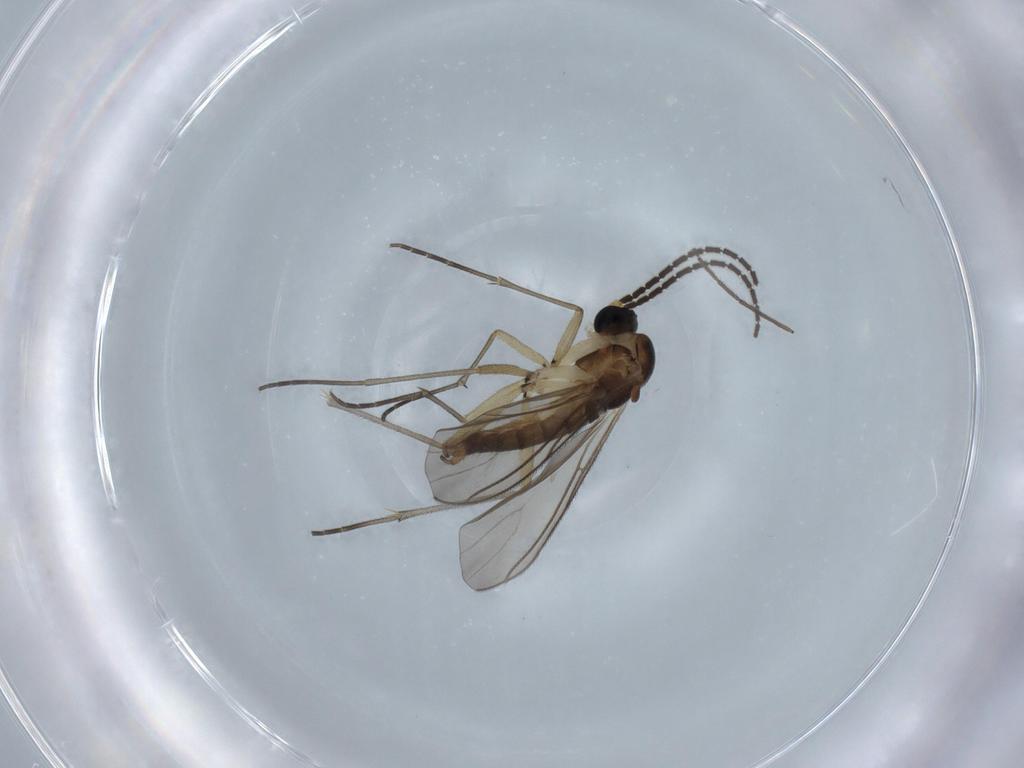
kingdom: Animalia
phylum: Arthropoda
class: Insecta
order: Diptera
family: Sciaridae
